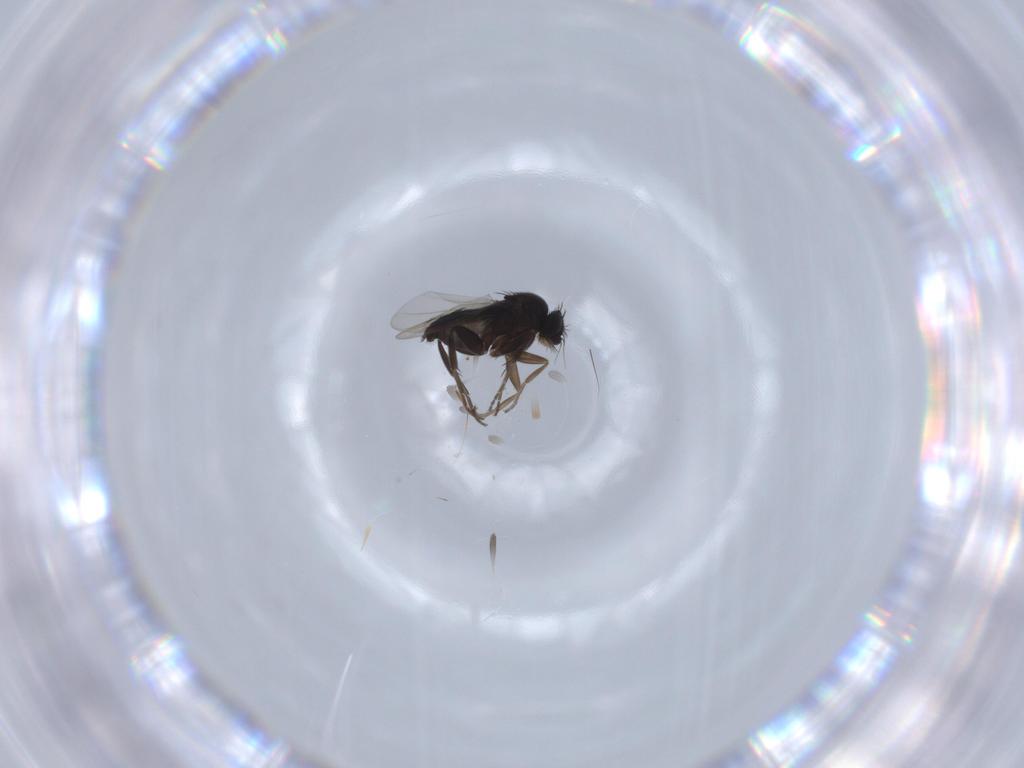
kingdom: Animalia
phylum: Arthropoda
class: Insecta
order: Diptera
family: Phoridae
